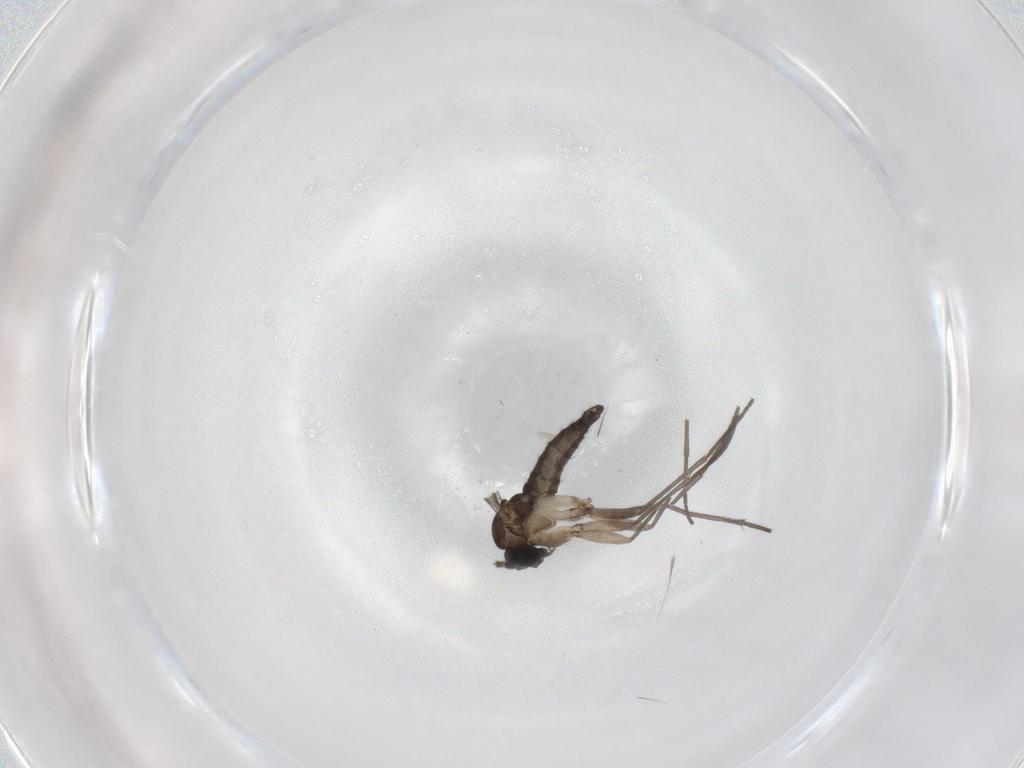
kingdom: Animalia
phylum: Arthropoda
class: Insecta
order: Diptera
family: Sciaridae
